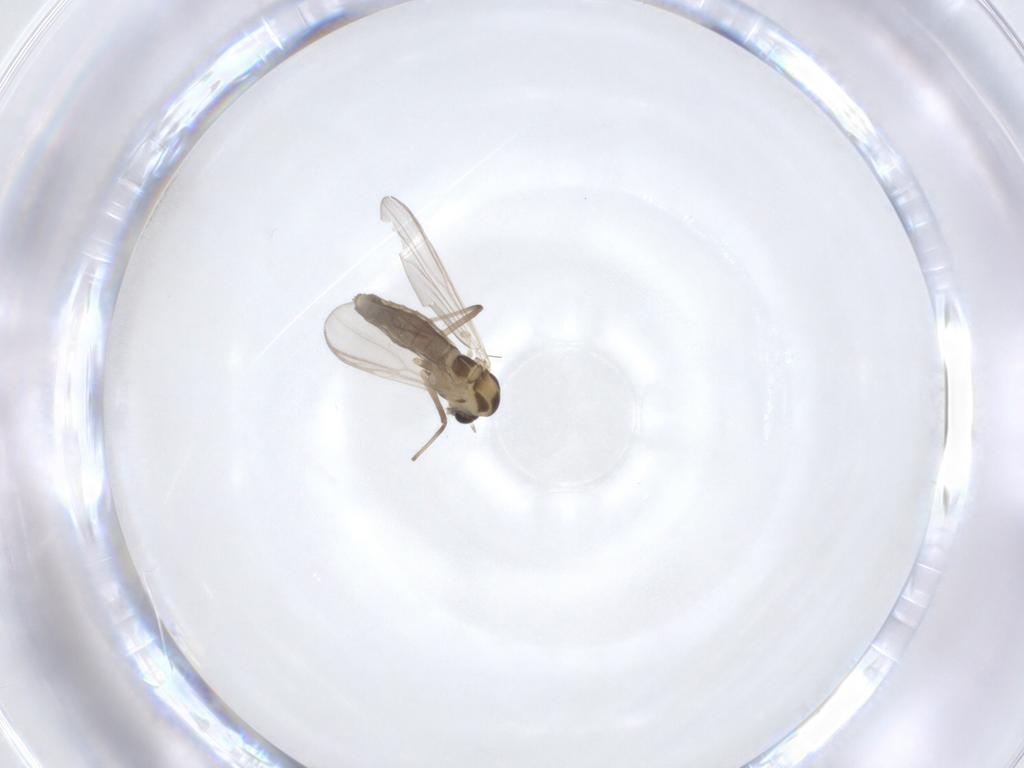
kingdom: Animalia
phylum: Arthropoda
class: Insecta
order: Diptera
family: Chironomidae
